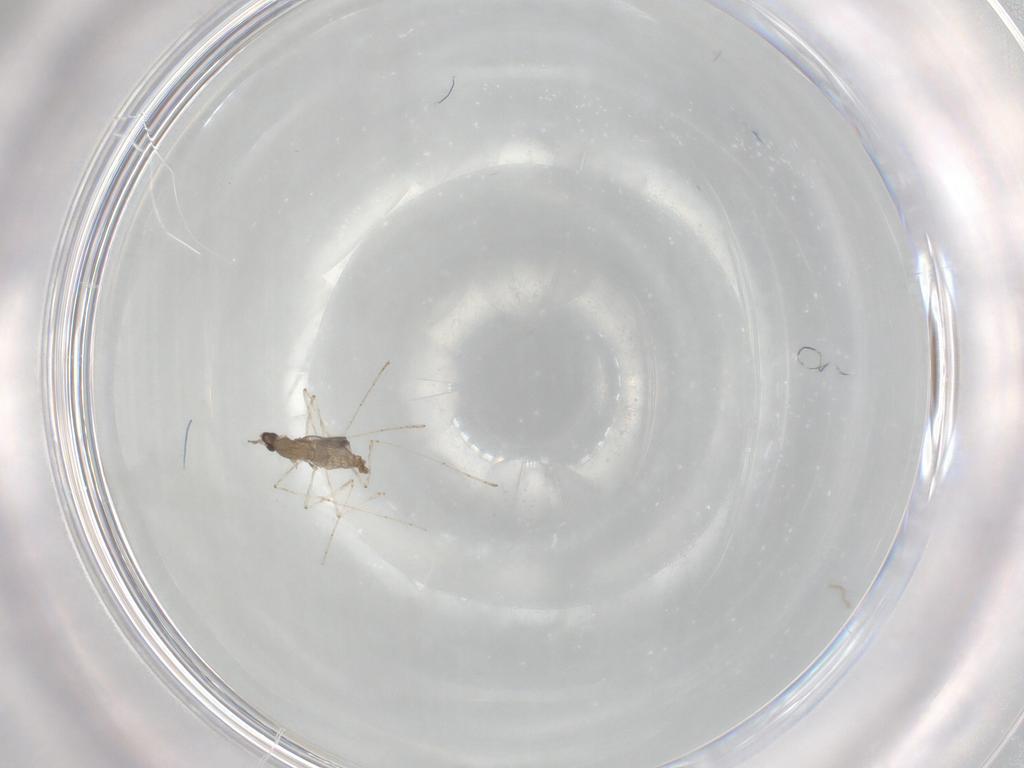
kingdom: Animalia
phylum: Arthropoda
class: Insecta
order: Diptera
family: Cecidomyiidae
